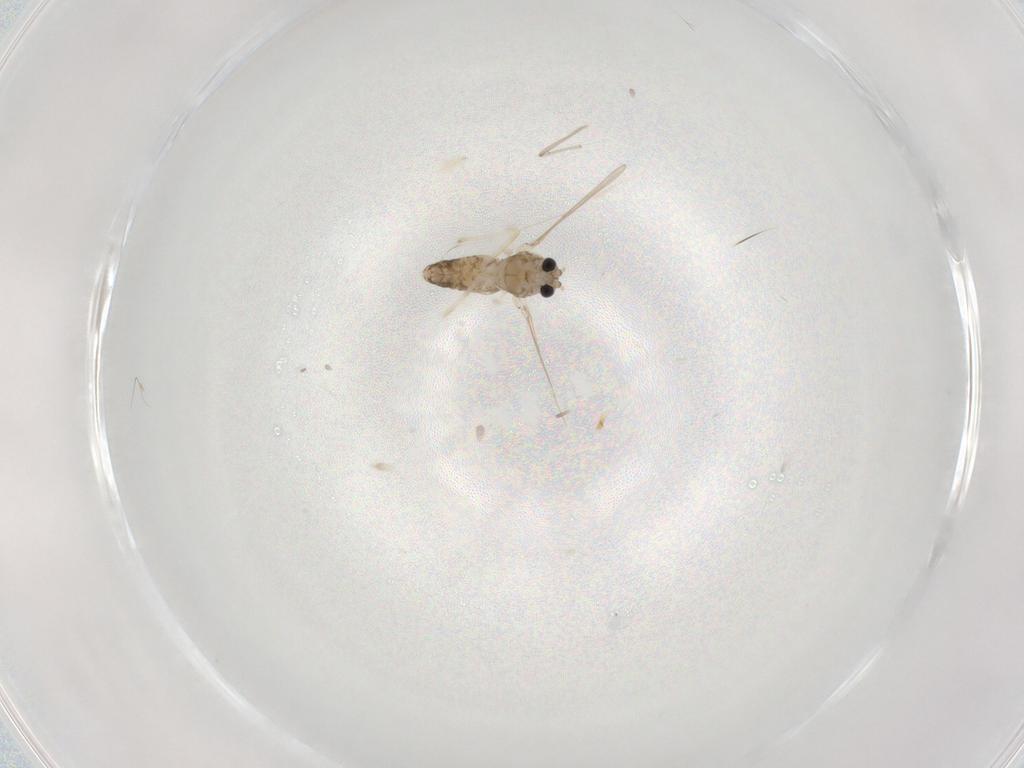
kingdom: Animalia
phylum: Arthropoda
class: Insecta
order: Diptera
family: Chironomidae
